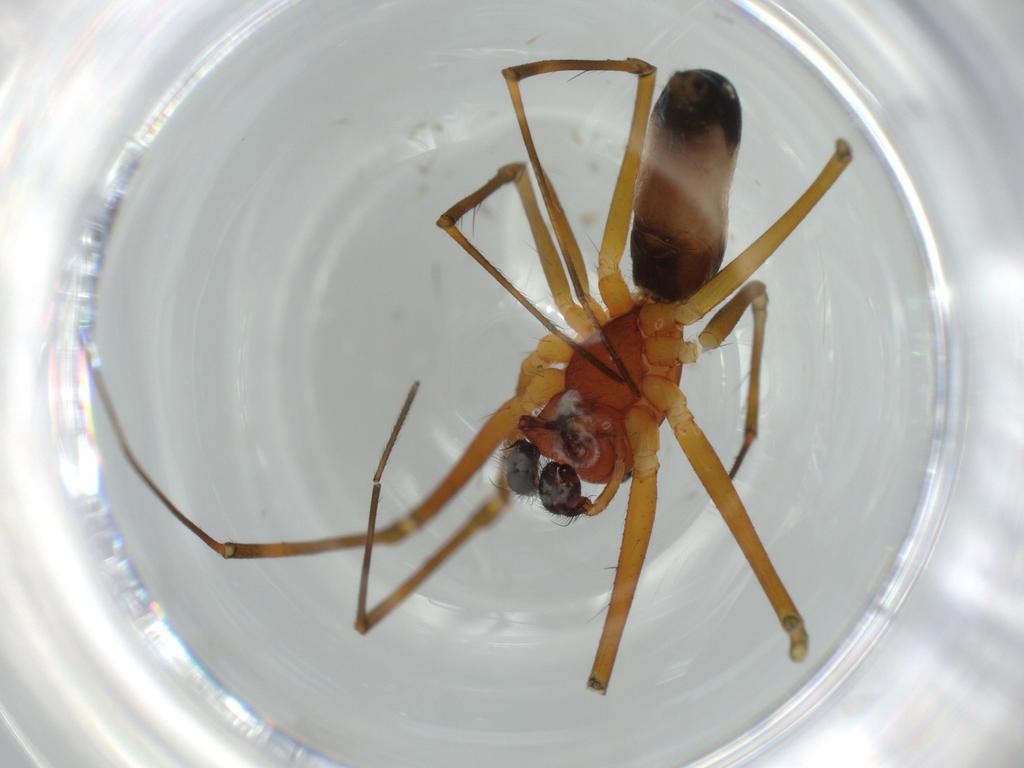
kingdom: Animalia
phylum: Arthropoda
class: Arachnida
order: Araneae
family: Linyphiidae
